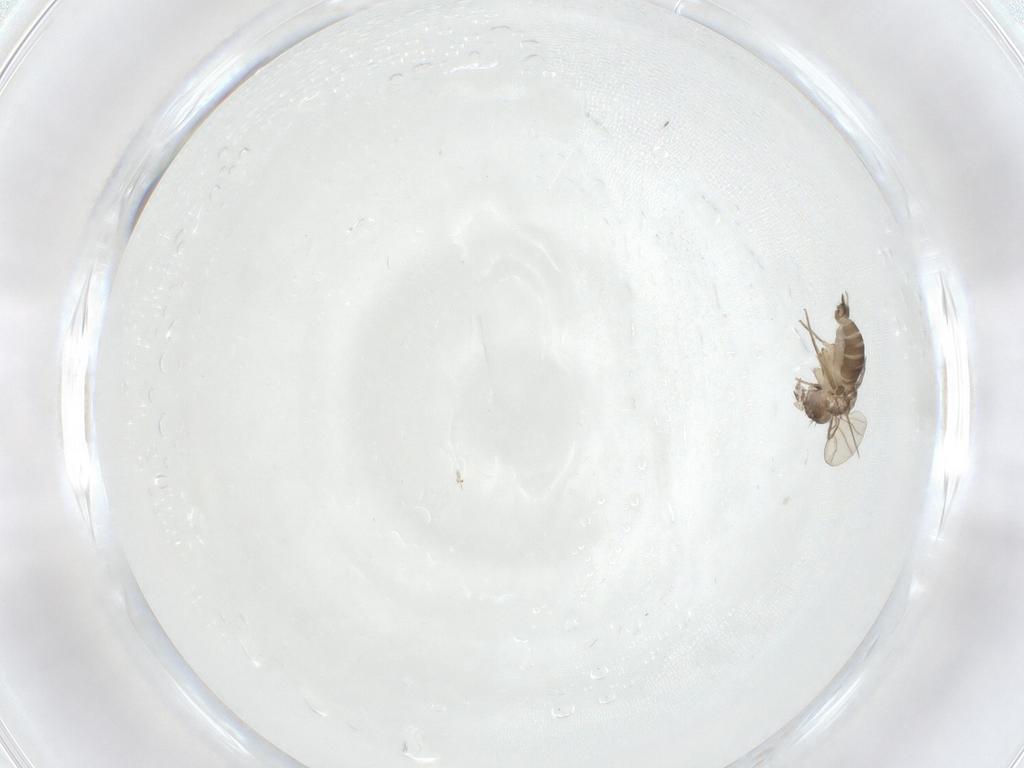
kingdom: Animalia
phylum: Arthropoda
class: Insecta
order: Diptera
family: Phoridae
